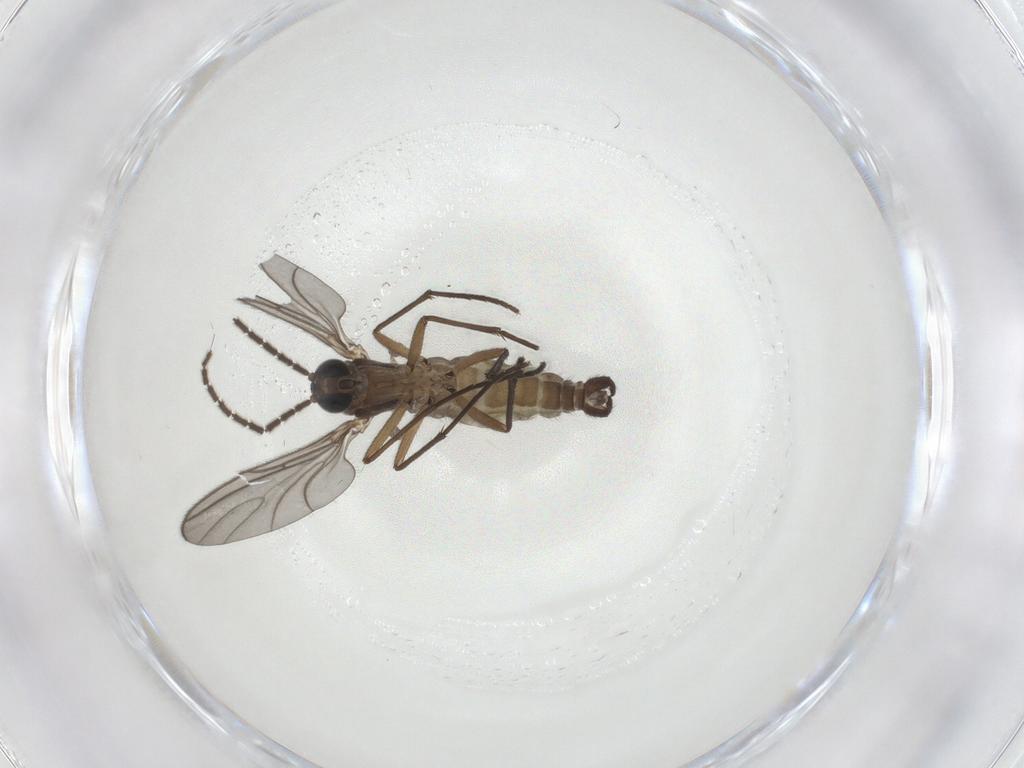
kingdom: Animalia
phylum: Arthropoda
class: Insecta
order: Diptera
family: Sciaridae
